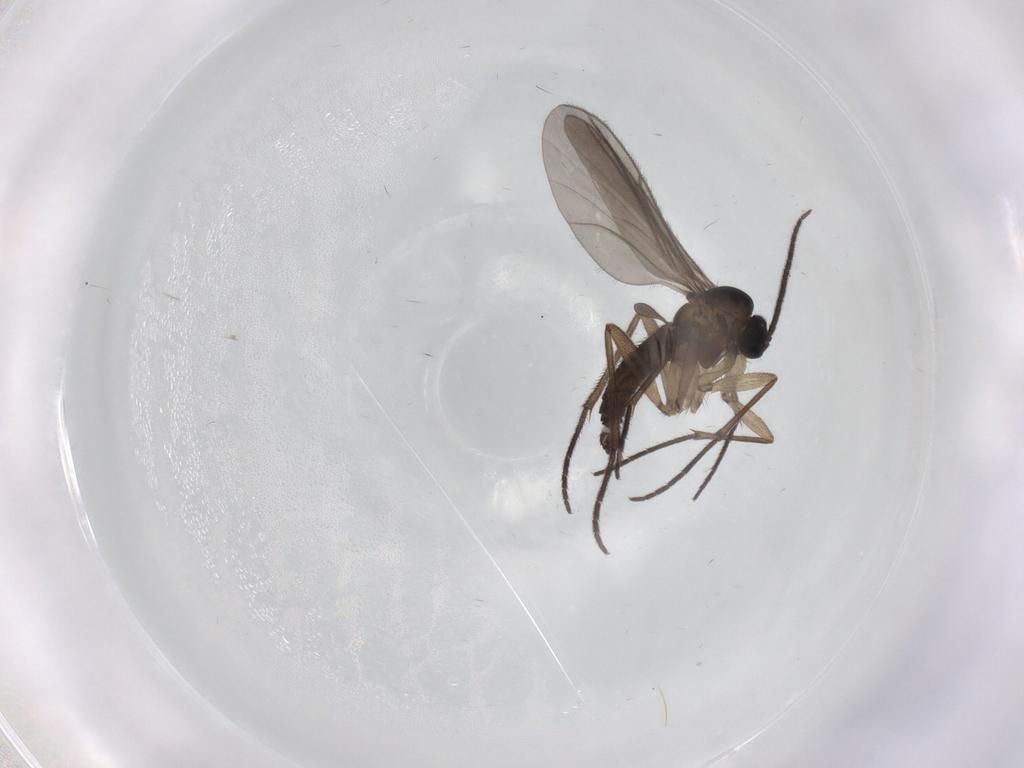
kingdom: Animalia
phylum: Arthropoda
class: Insecta
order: Diptera
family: Sciaridae
